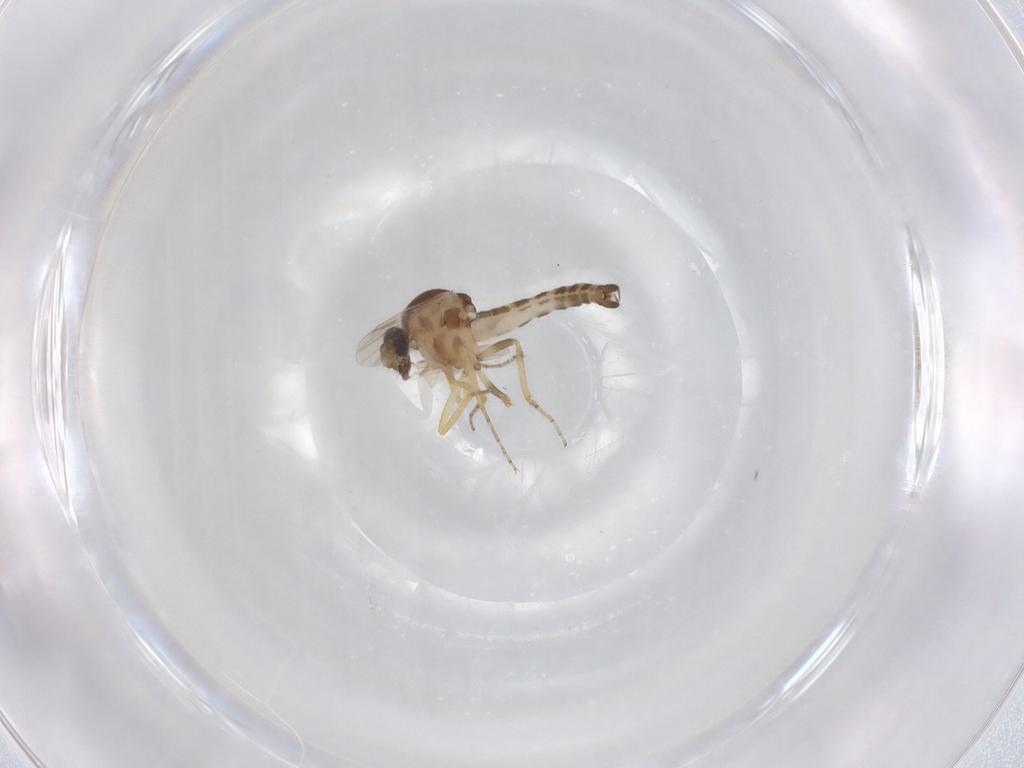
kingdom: Animalia
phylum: Arthropoda
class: Insecta
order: Diptera
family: Ceratopogonidae
